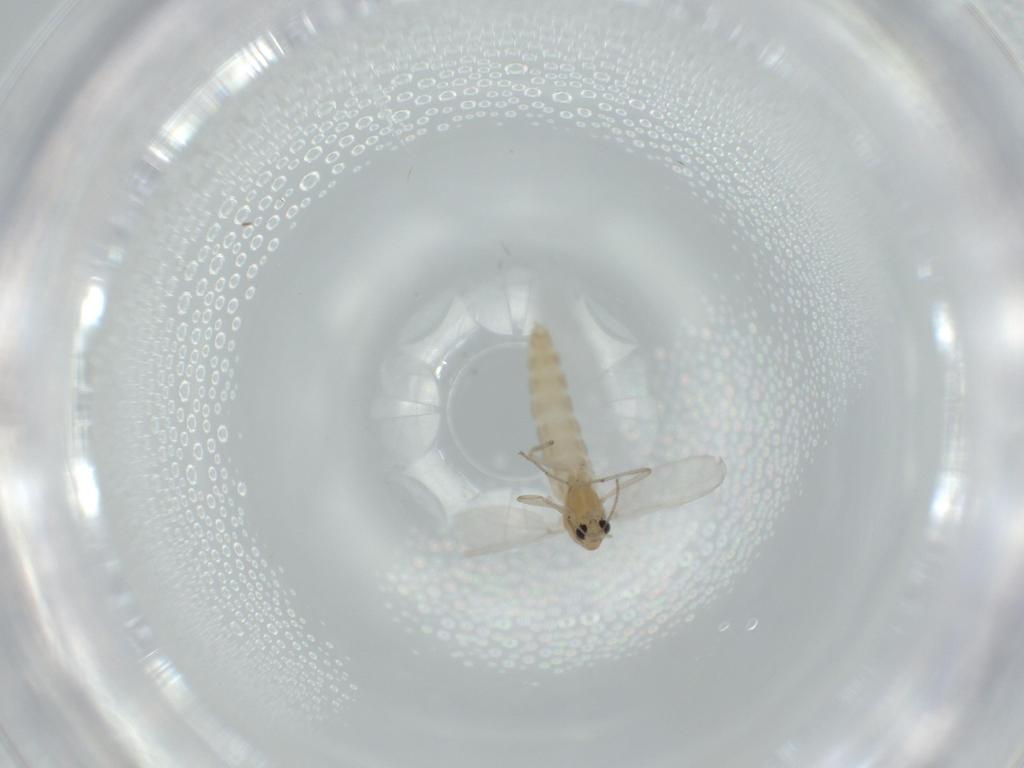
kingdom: Animalia
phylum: Arthropoda
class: Insecta
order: Diptera
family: Chironomidae
